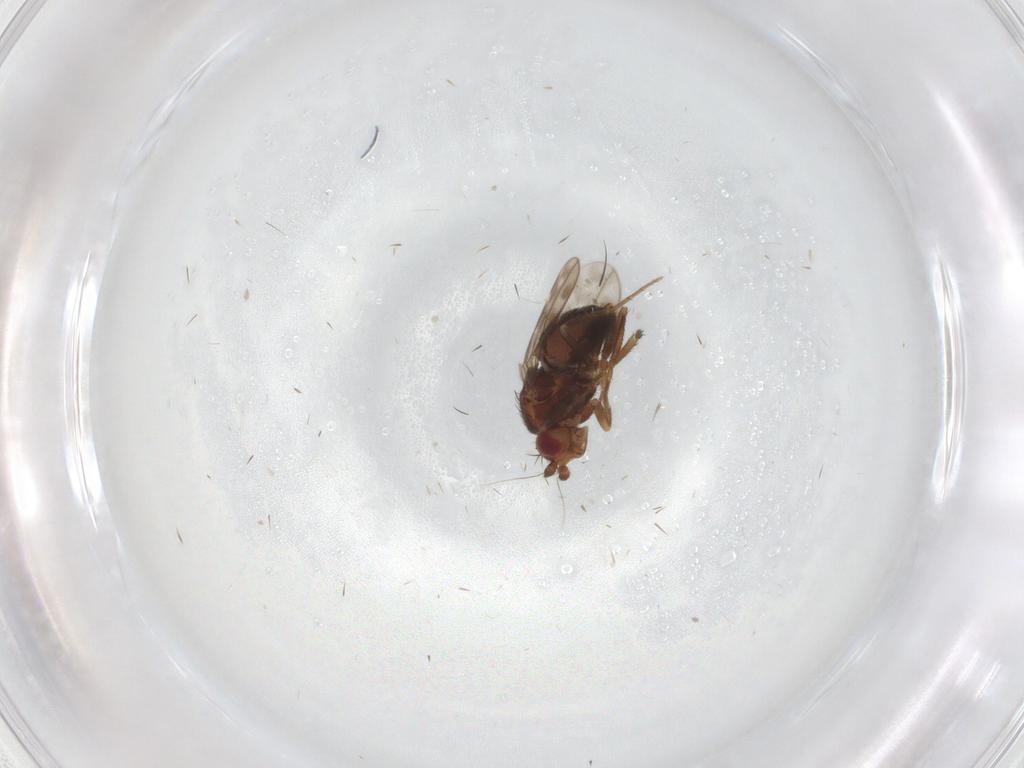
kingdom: Animalia
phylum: Arthropoda
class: Insecta
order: Diptera
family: Sphaeroceridae
